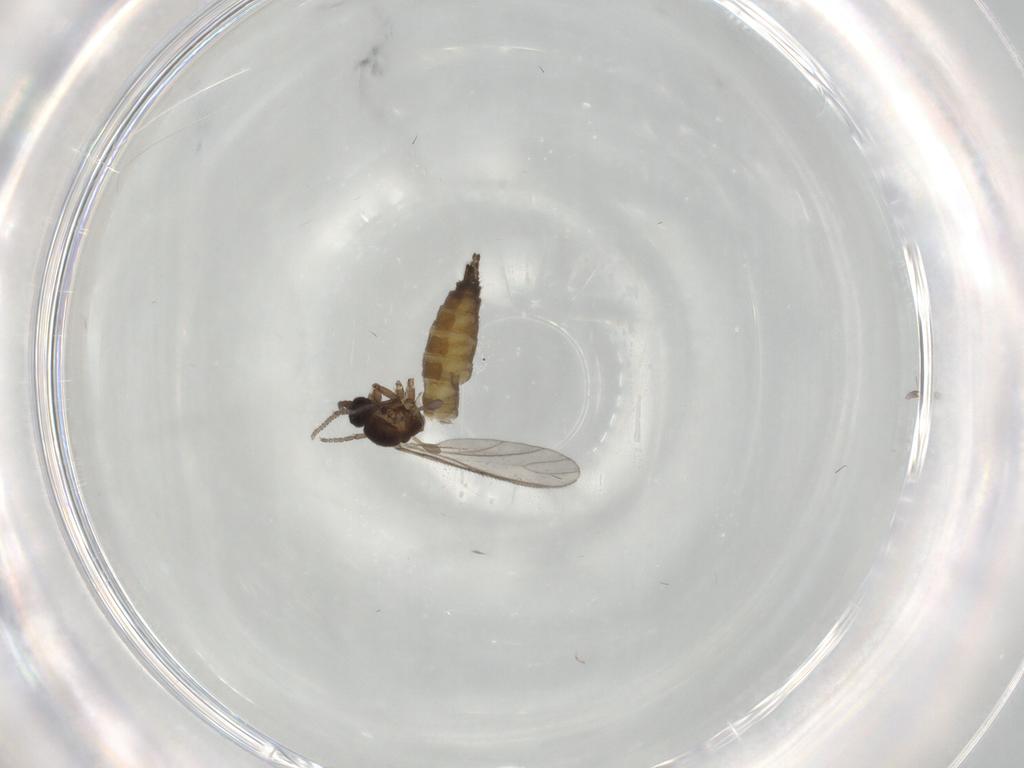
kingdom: Animalia
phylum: Arthropoda
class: Insecta
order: Diptera
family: Sciaridae
